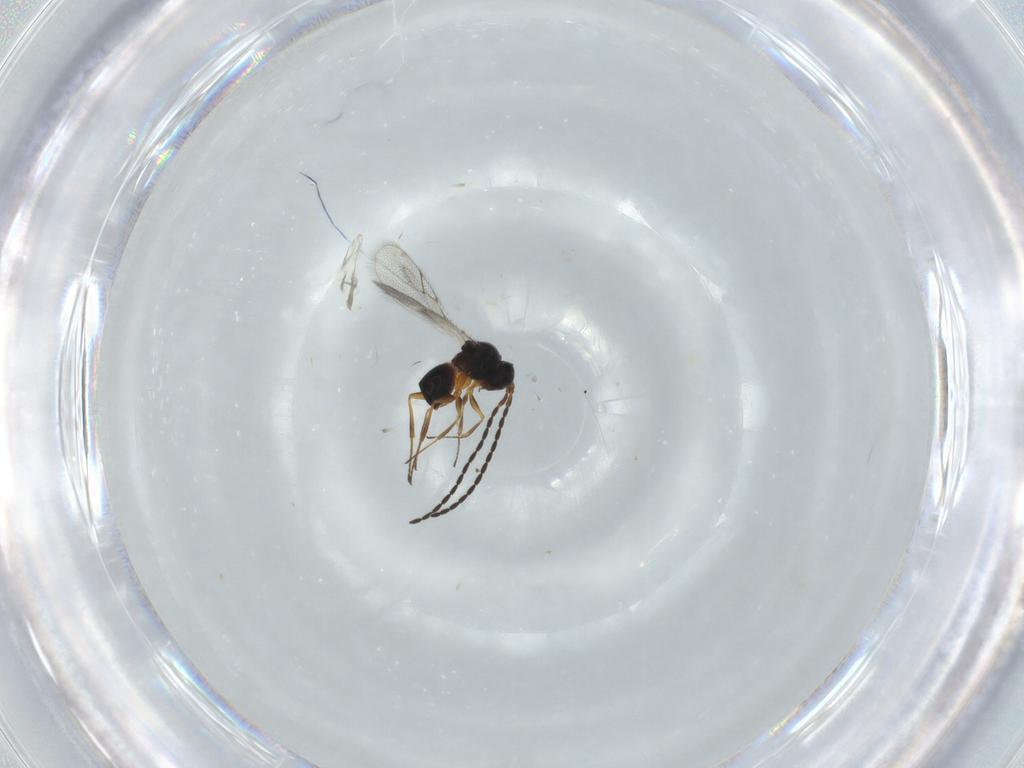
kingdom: Animalia
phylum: Arthropoda
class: Insecta
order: Hymenoptera
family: Figitidae
